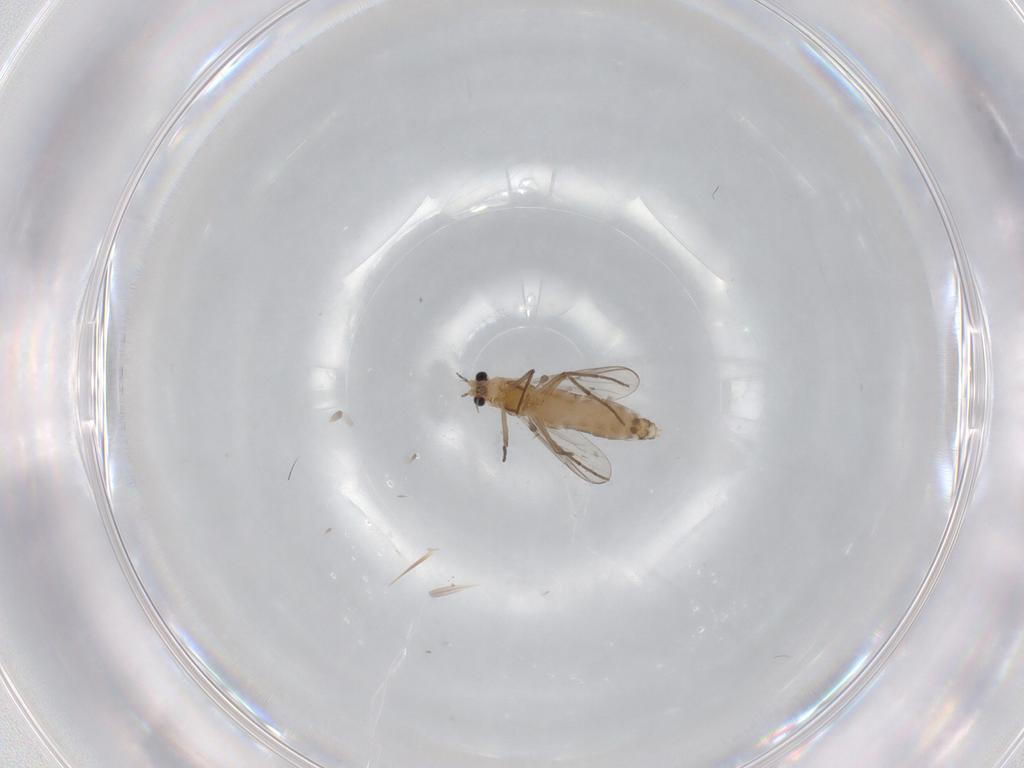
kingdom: Animalia
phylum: Arthropoda
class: Insecta
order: Diptera
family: Chironomidae
